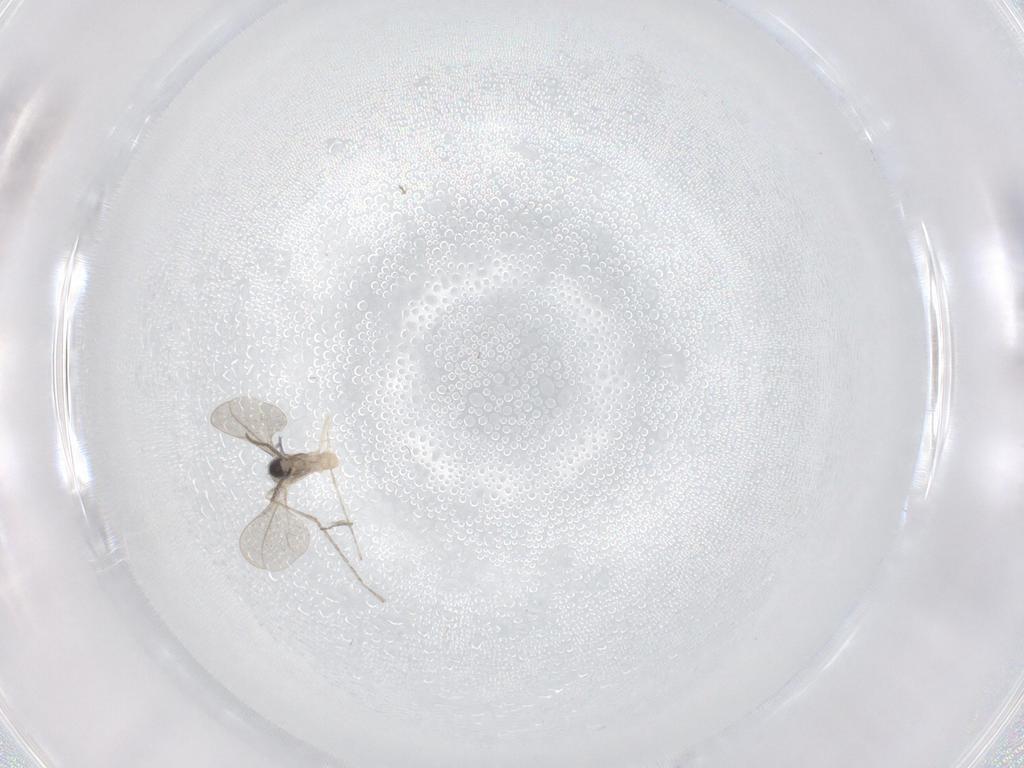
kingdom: Animalia
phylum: Arthropoda
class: Insecta
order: Diptera
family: Cecidomyiidae
